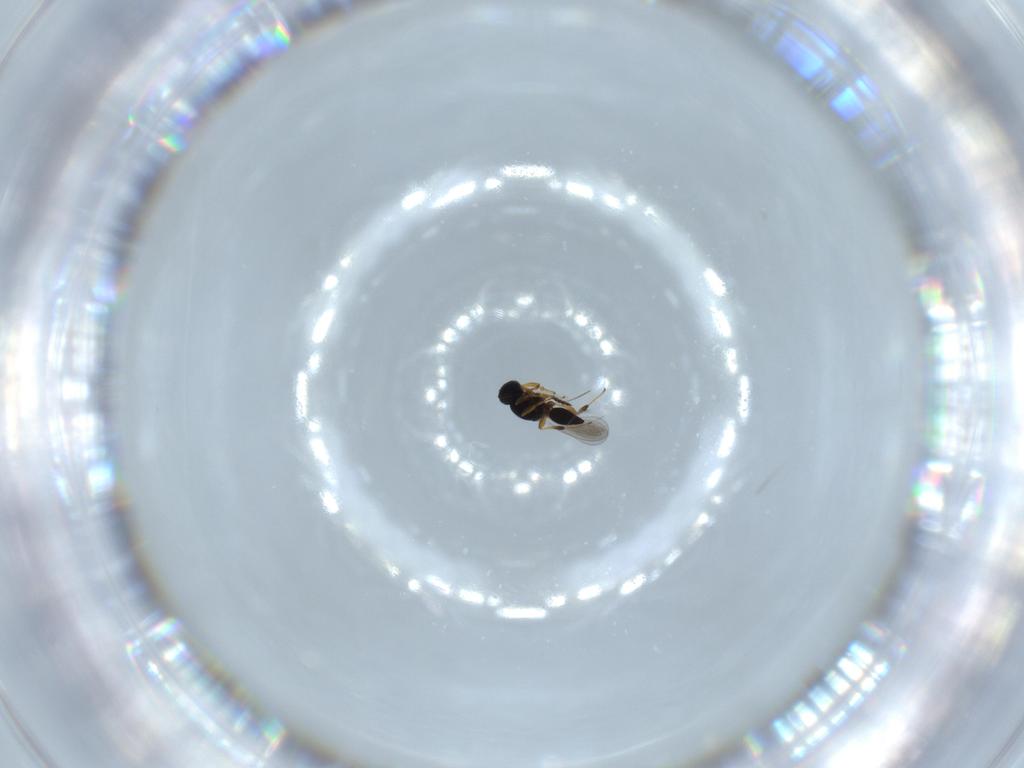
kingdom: Animalia
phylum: Arthropoda
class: Insecta
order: Hymenoptera
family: Platygastridae
